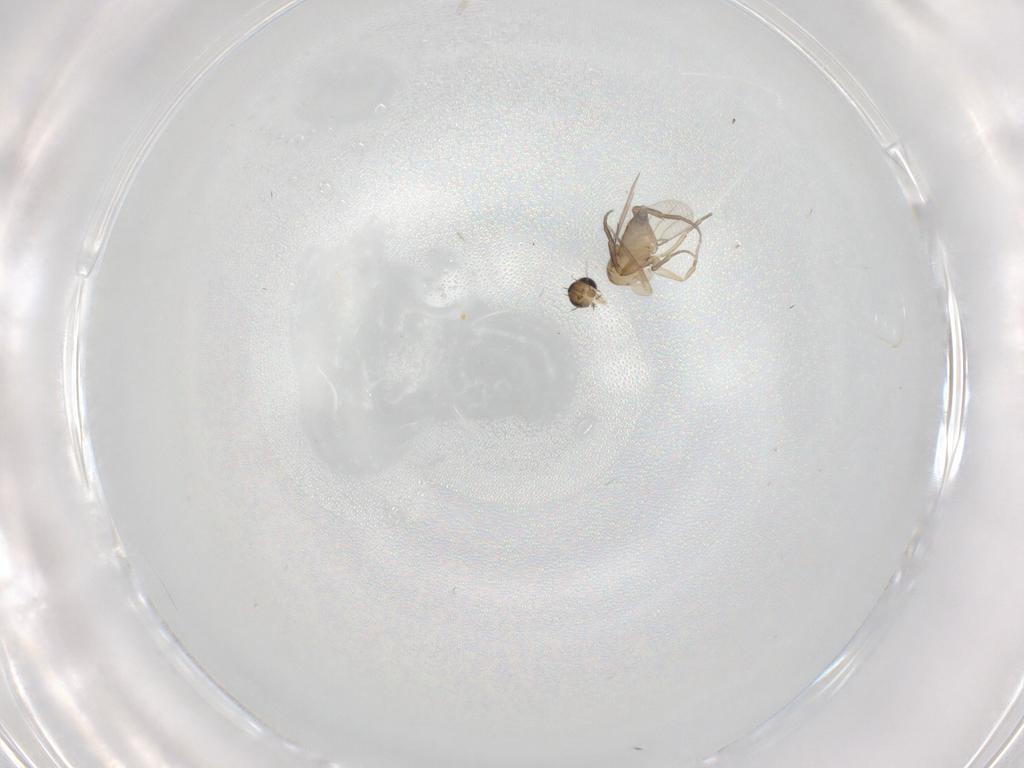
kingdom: Animalia
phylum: Arthropoda
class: Insecta
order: Diptera
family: Phoridae
